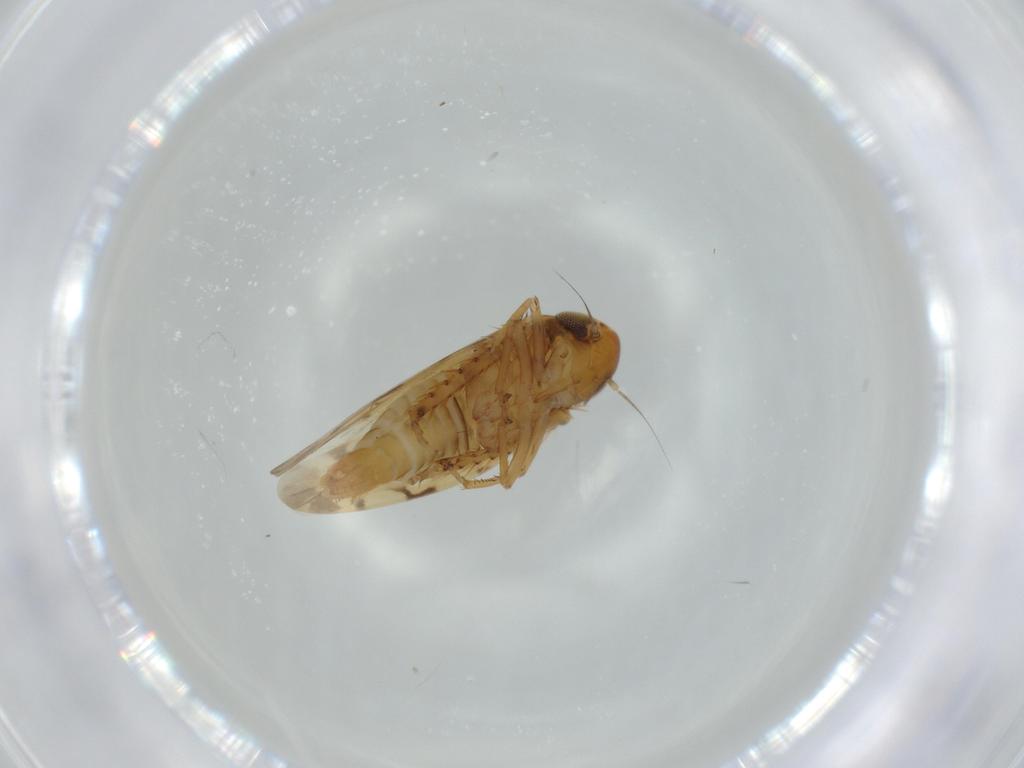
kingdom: Animalia
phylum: Arthropoda
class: Insecta
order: Hemiptera
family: Cicadellidae
